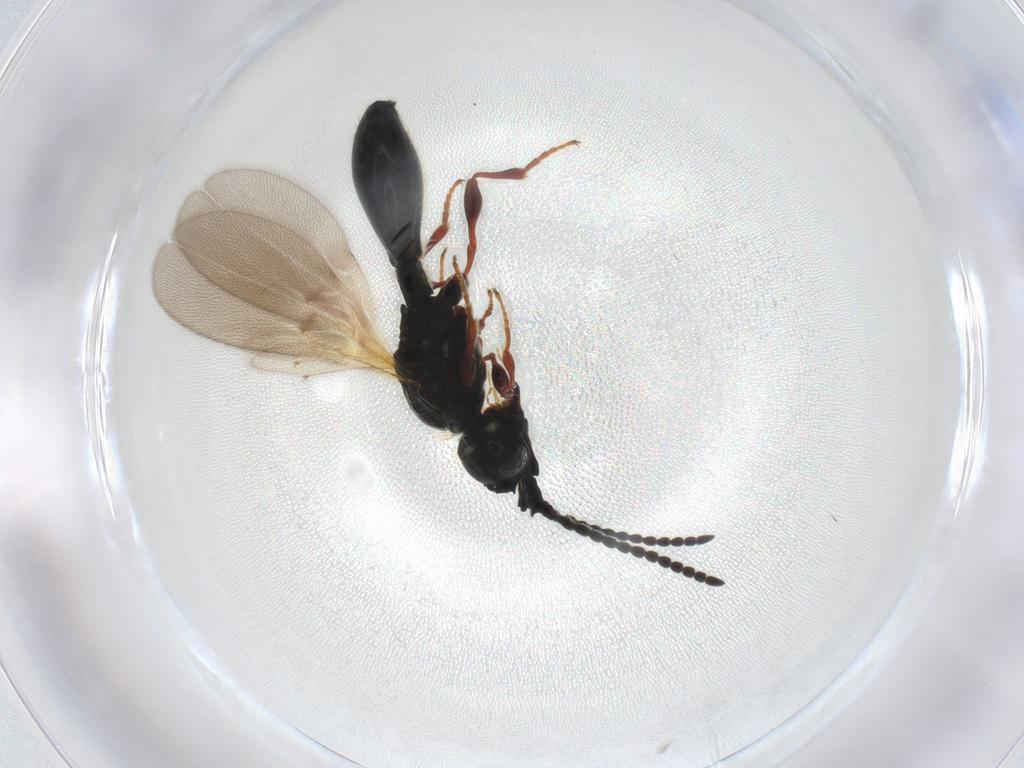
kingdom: Animalia
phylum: Arthropoda
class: Insecta
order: Hymenoptera
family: Diapriidae
